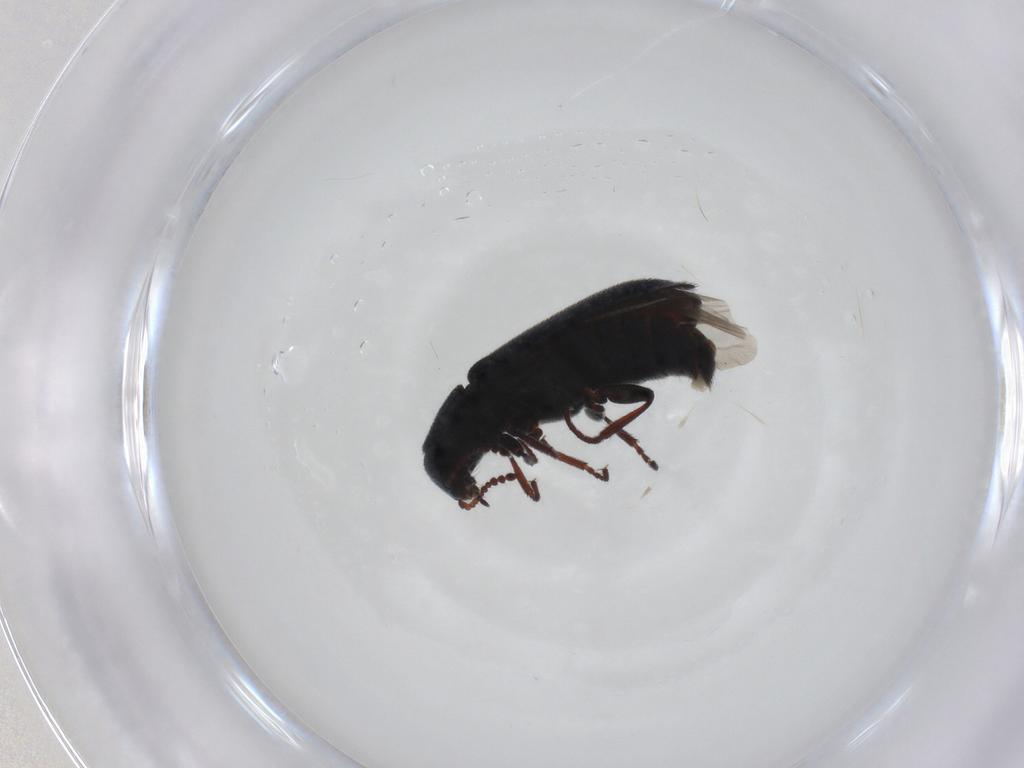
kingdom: Animalia
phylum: Arthropoda
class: Insecta
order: Coleoptera
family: Melyridae
